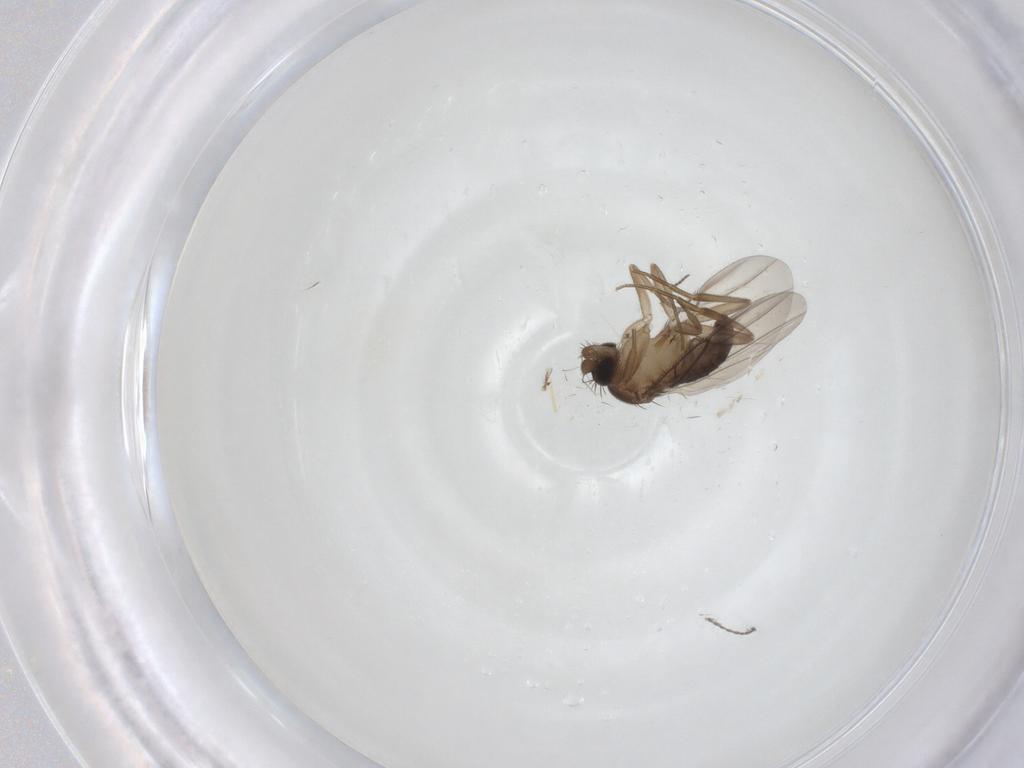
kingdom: Animalia
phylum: Arthropoda
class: Insecta
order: Diptera
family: Sciaridae
